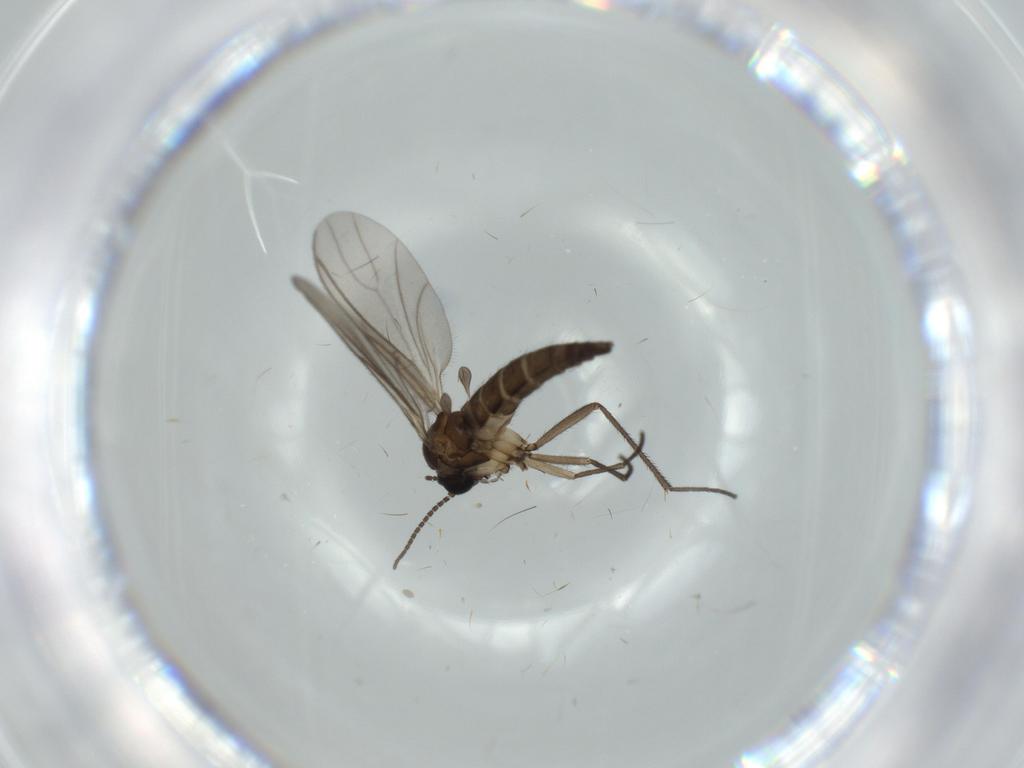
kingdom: Animalia
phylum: Arthropoda
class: Insecta
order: Diptera
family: Sciaridae
